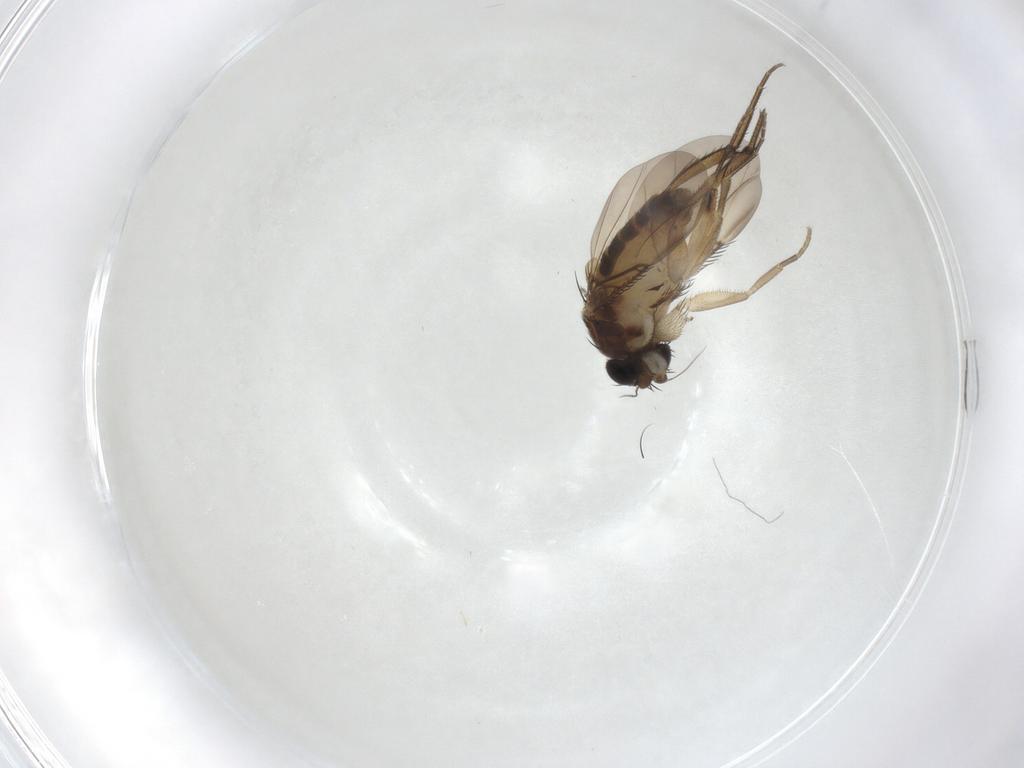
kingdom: Animalia
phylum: Arthropoda
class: Insecta
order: Diptera
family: Phoridae
